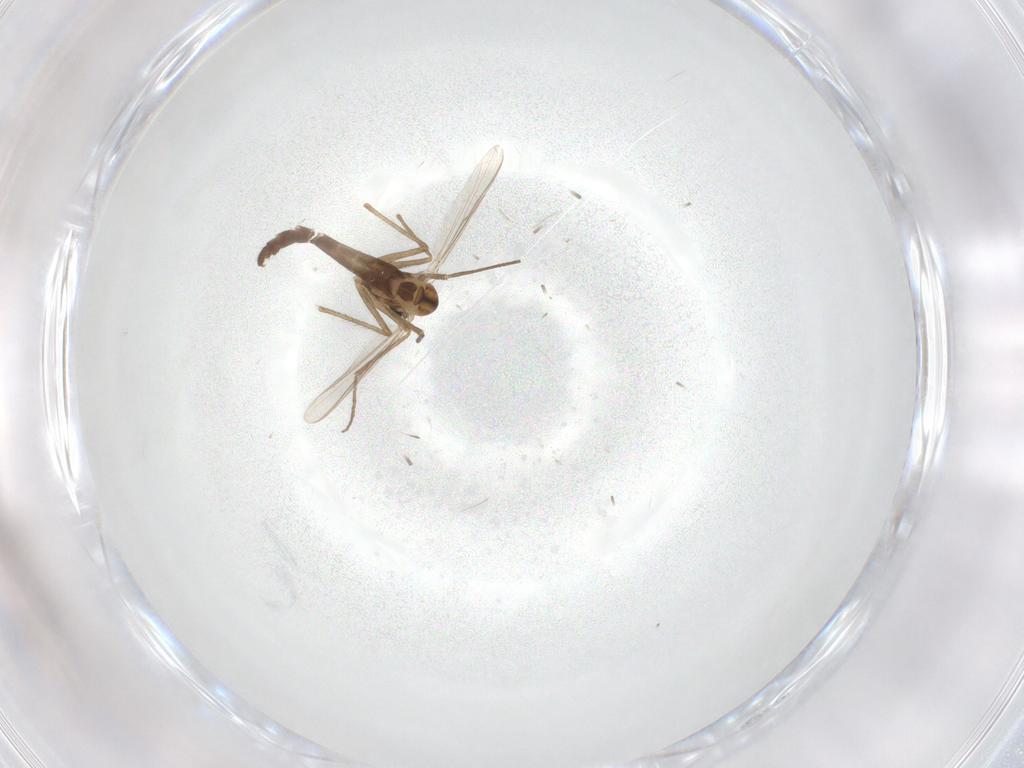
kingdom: Animalia
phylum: Arthropoda
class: Insecta
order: Diptera
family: Chironomidae
